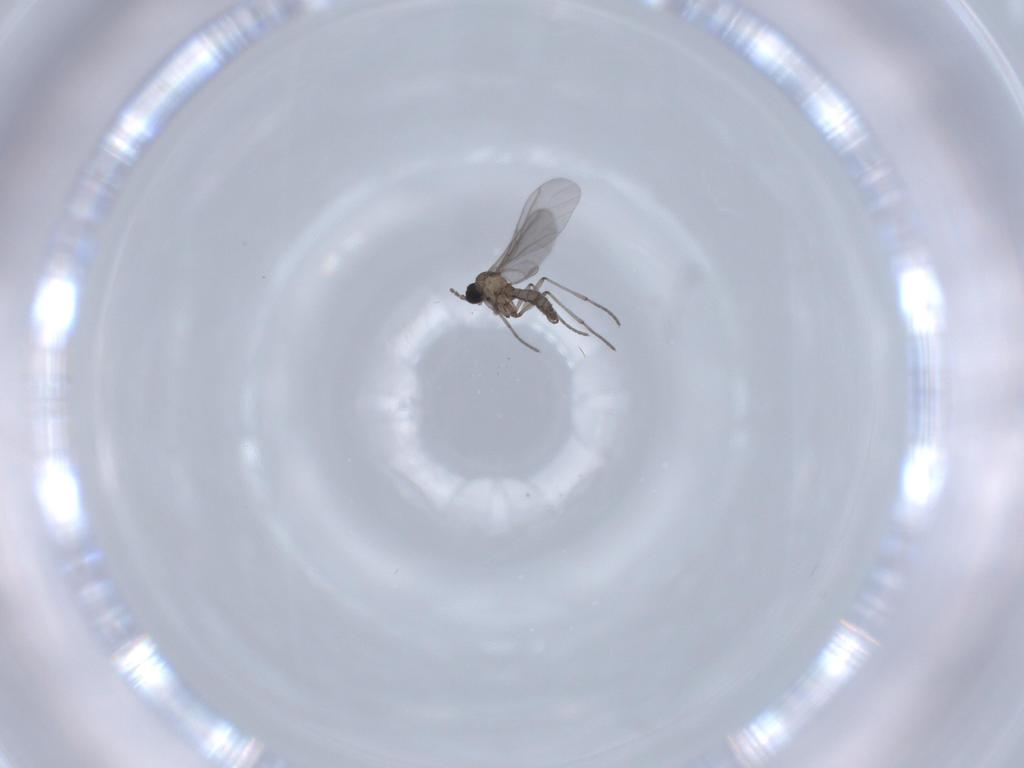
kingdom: Animalia
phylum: Arthropoda
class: Insecta
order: Diptera
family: Sciaridae
